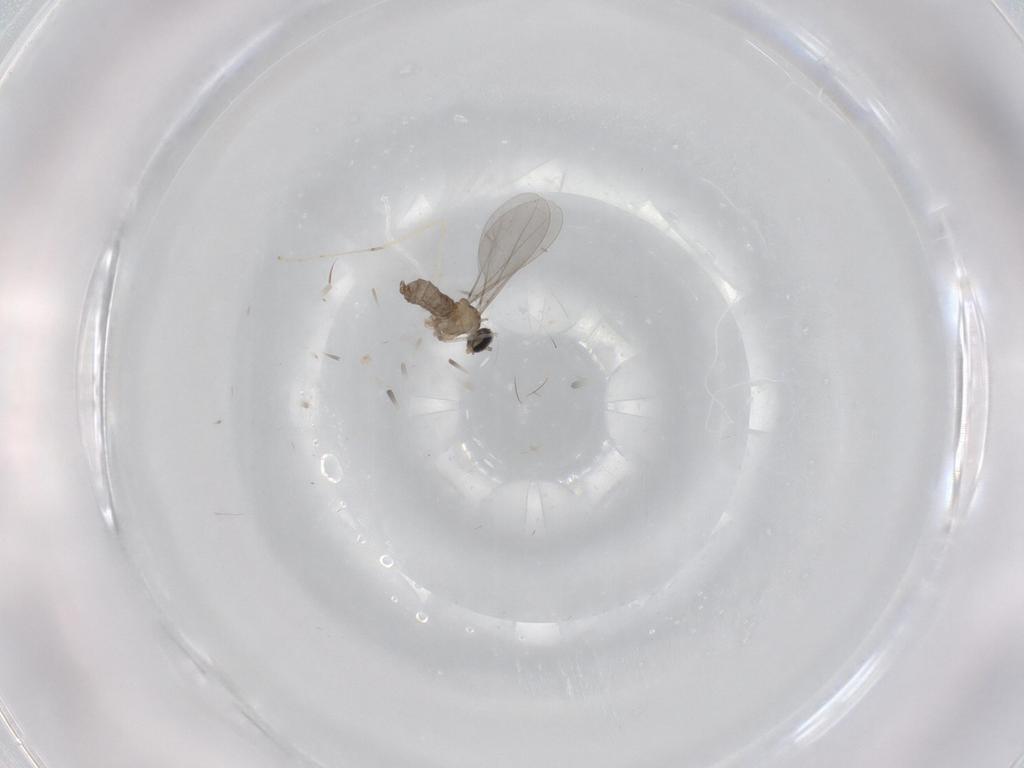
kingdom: Animalia
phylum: Arthropoda
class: Insecta
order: Diptera
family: Cecidomyiidae
